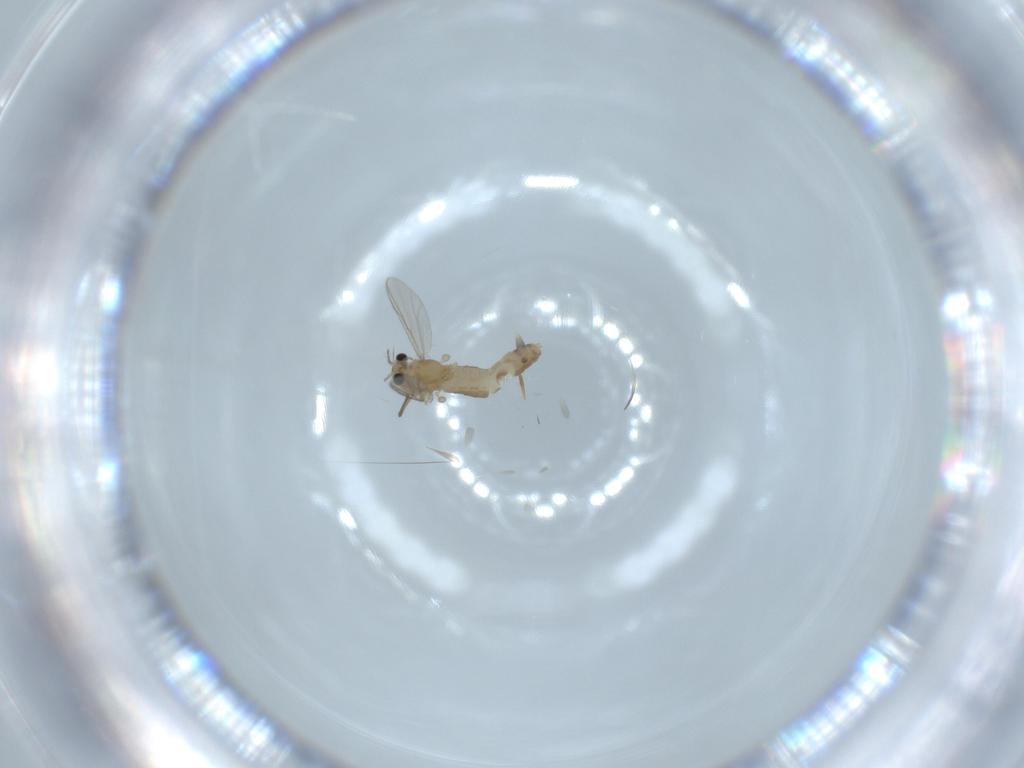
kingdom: Animalia
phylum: Arthropoda
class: Insecta
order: Diptera
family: Chironomidae
